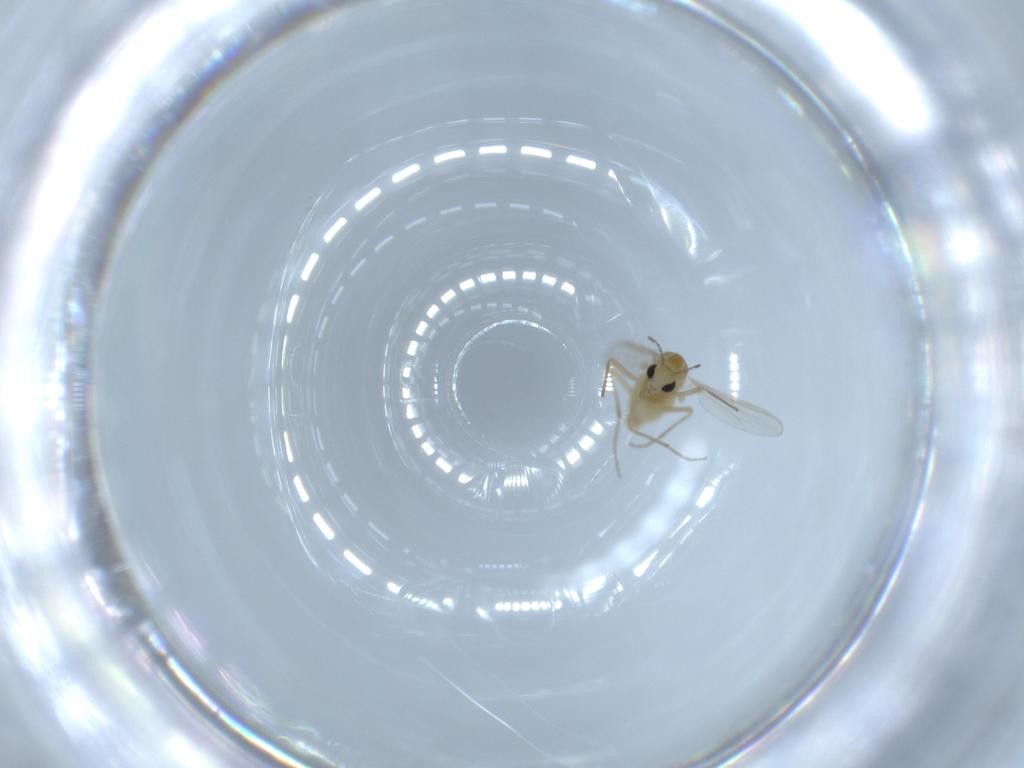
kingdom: Animalia
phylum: Arthropoda
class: Insecta
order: Diptera
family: Chironomidae
